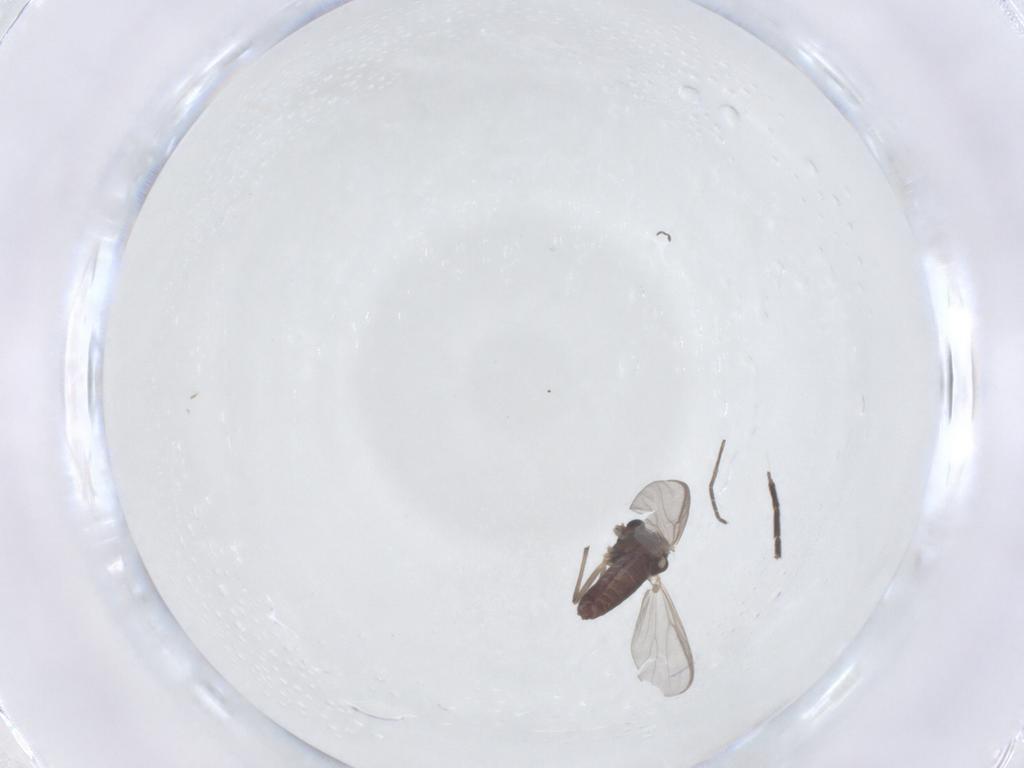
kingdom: Animalia
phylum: Arthropoda
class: Insecta
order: Diptera
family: Chironomidae
